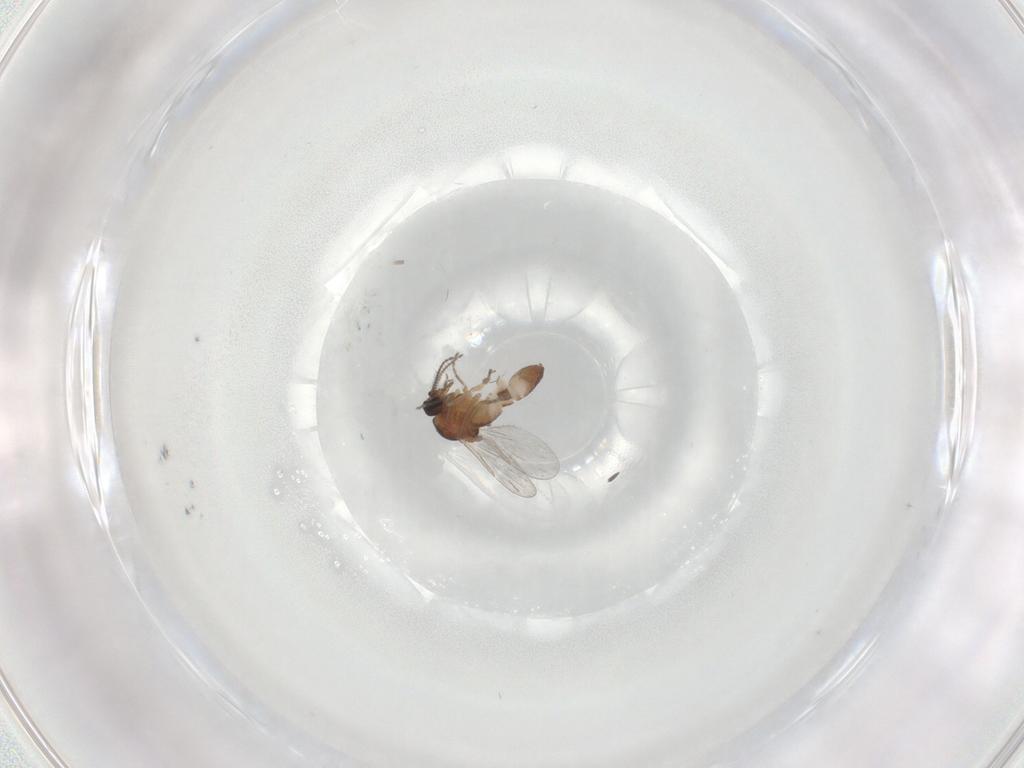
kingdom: Animalia
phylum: Arthropoda
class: Insecta
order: Diptera
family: Ceratopogonidae
